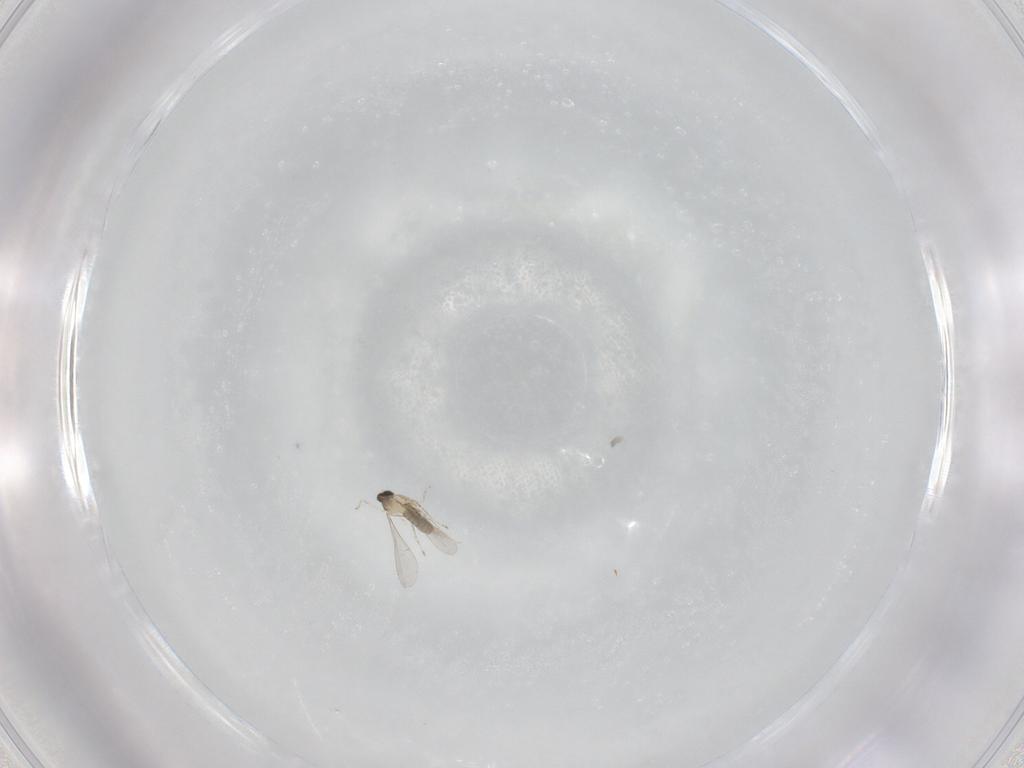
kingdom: Animalia
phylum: Arthropoda
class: Insecta
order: Diptera
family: Cecidomyiidae
